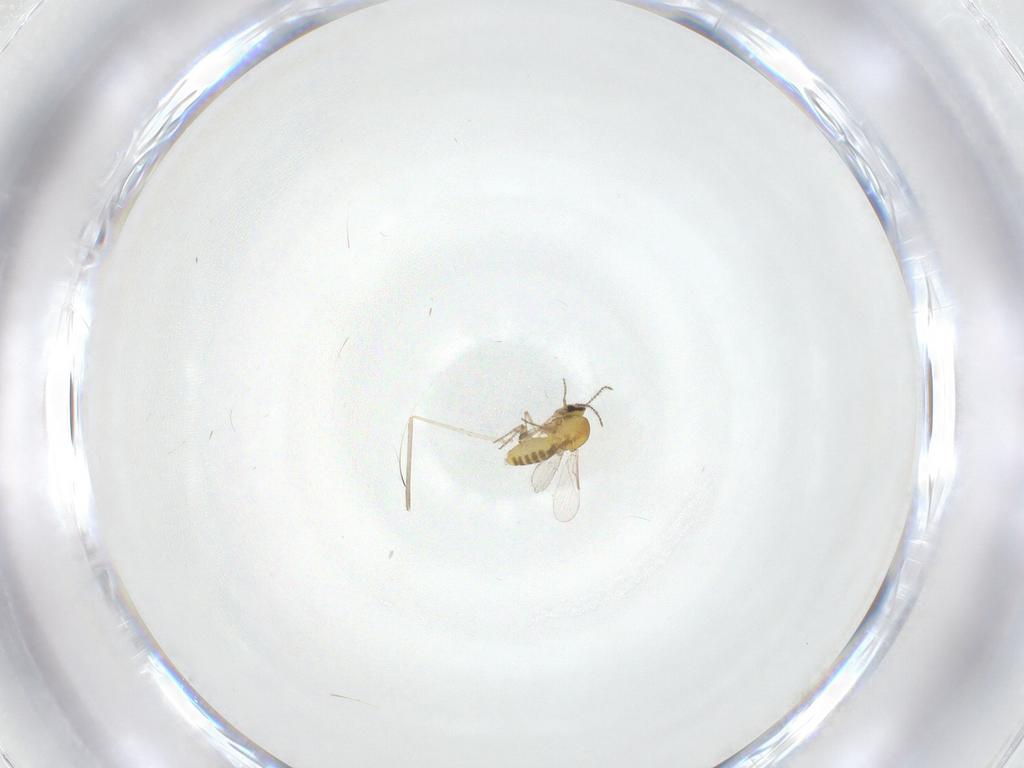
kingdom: Animalia
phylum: Arthropoda
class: Insecta
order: Diptera
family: Ceratopogonidae
